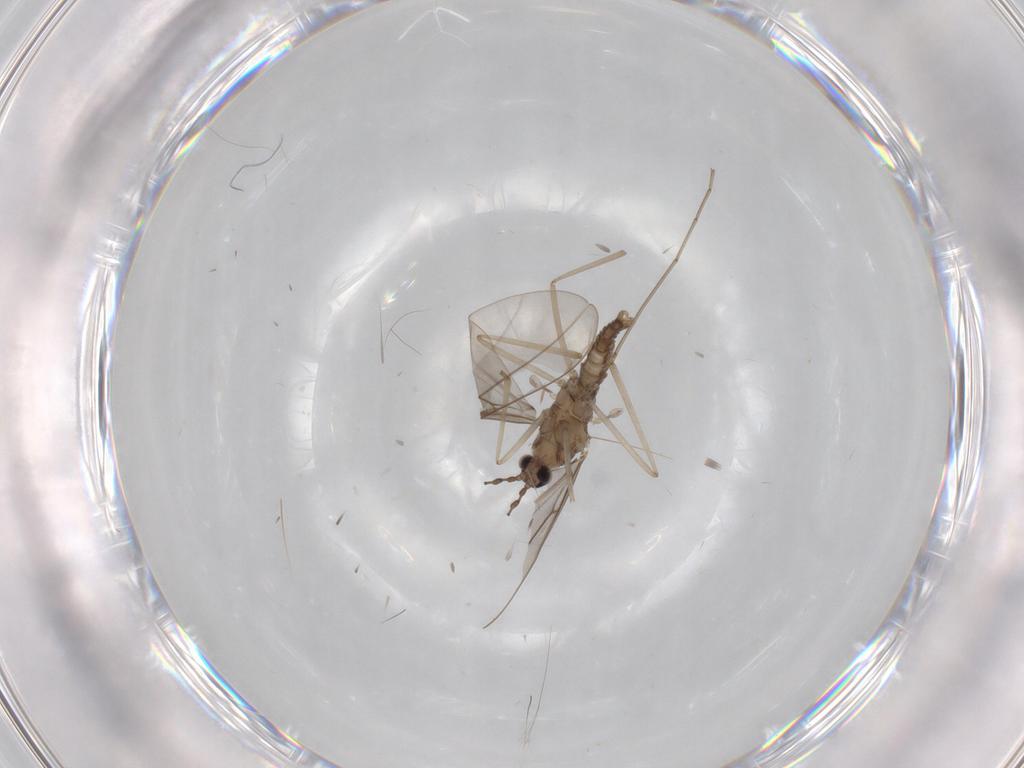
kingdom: Animalia
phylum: Arthropoda
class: Insecta
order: Diptera
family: Cecidomyiidae
